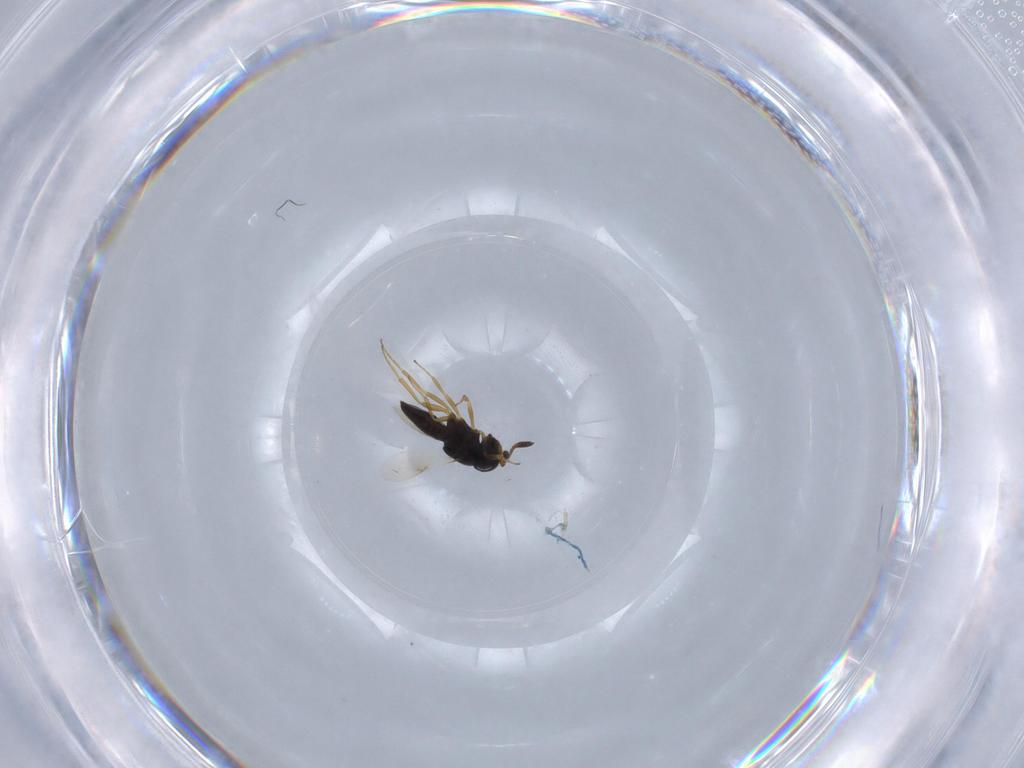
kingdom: Animalia
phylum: Arthropoda
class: Insecta
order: Hymenoptera
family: Scelionidae
